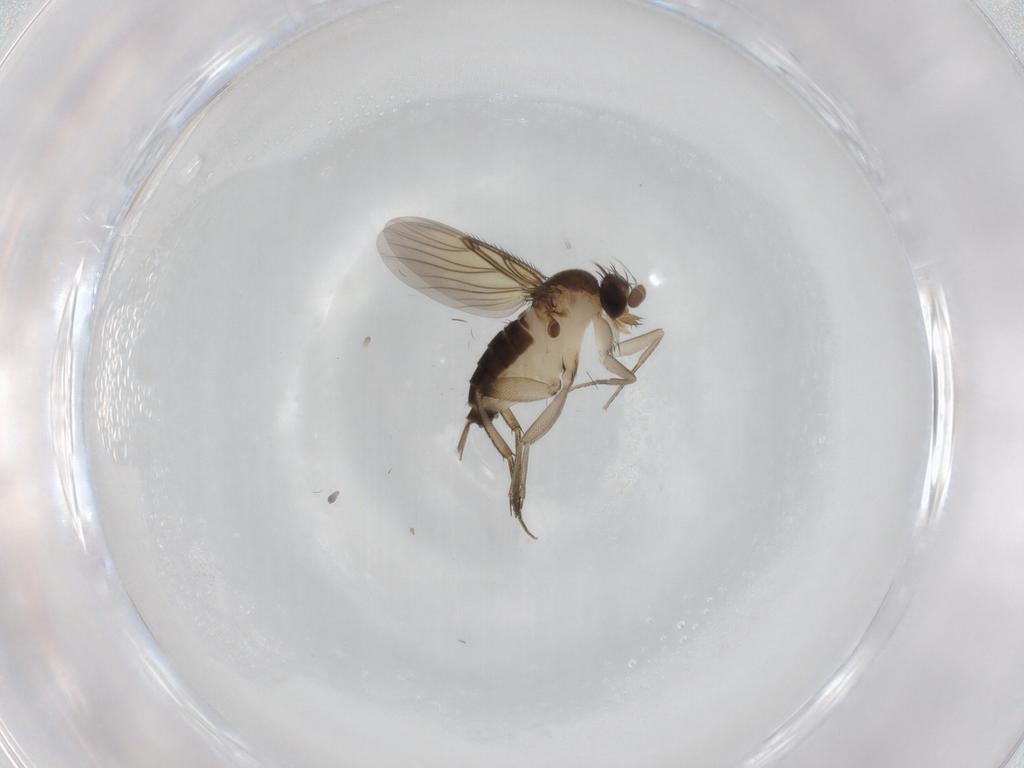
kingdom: Animalia
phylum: Arthropoda
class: Insecta
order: Diptera
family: Phoridae
